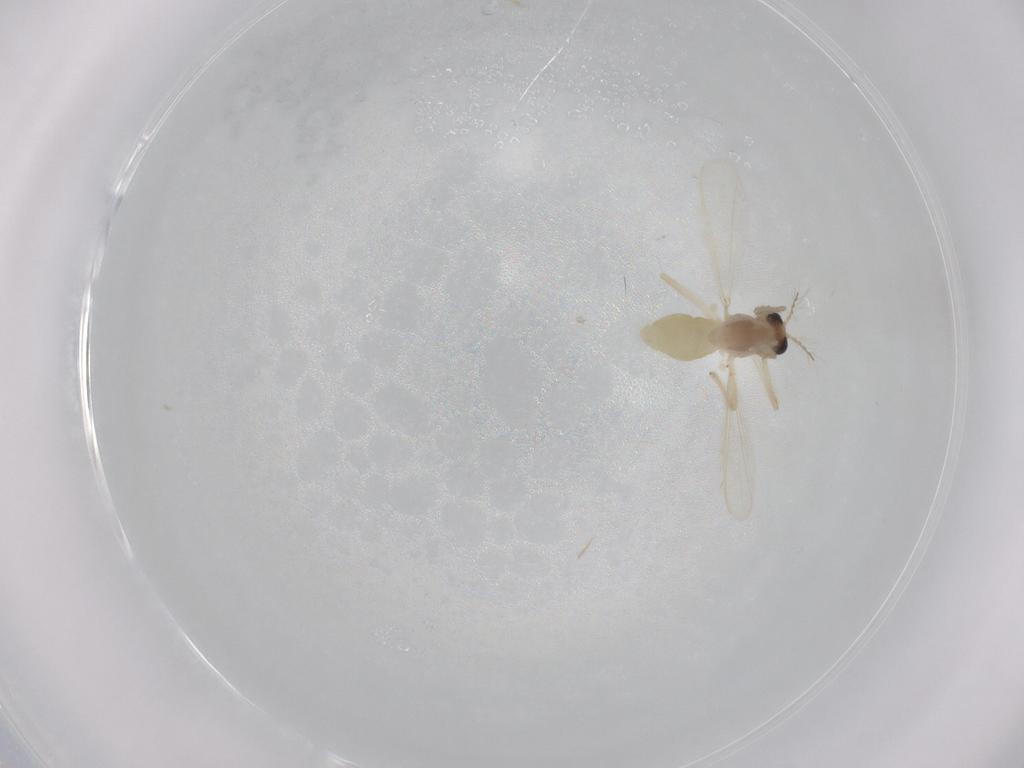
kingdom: Animalia
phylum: Arthropoda
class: Insecta
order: Diptera
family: Chironomidae
